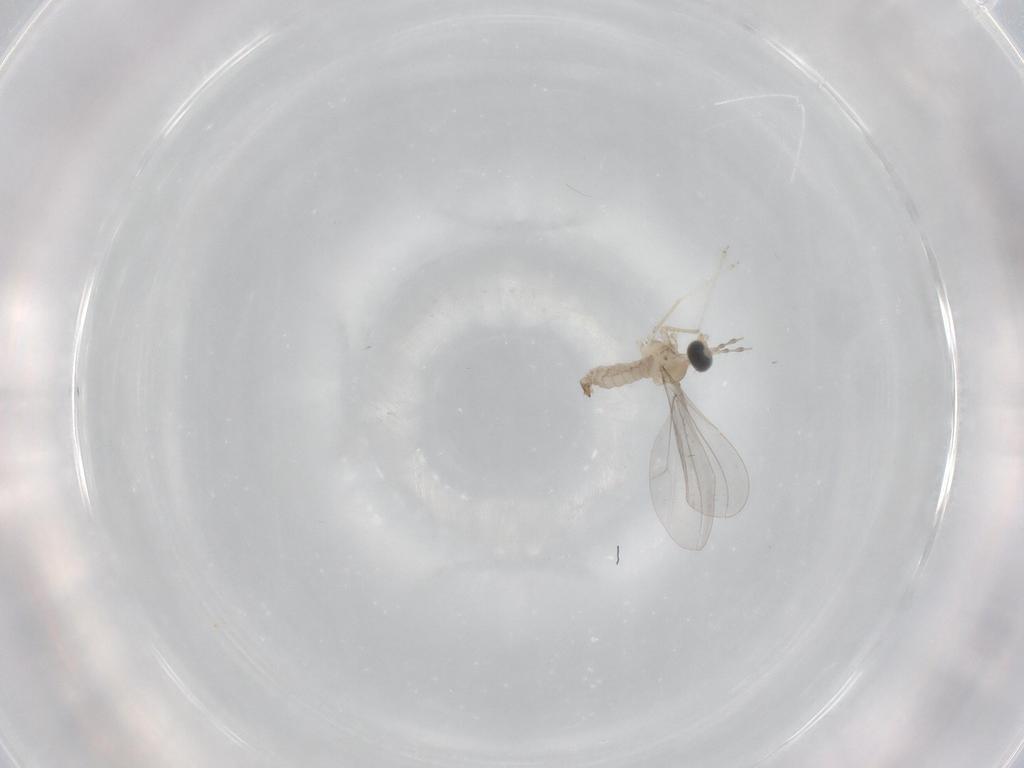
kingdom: Animalia
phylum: Arthropoda
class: Insecta
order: Diptera
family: Cecidomyiidae
